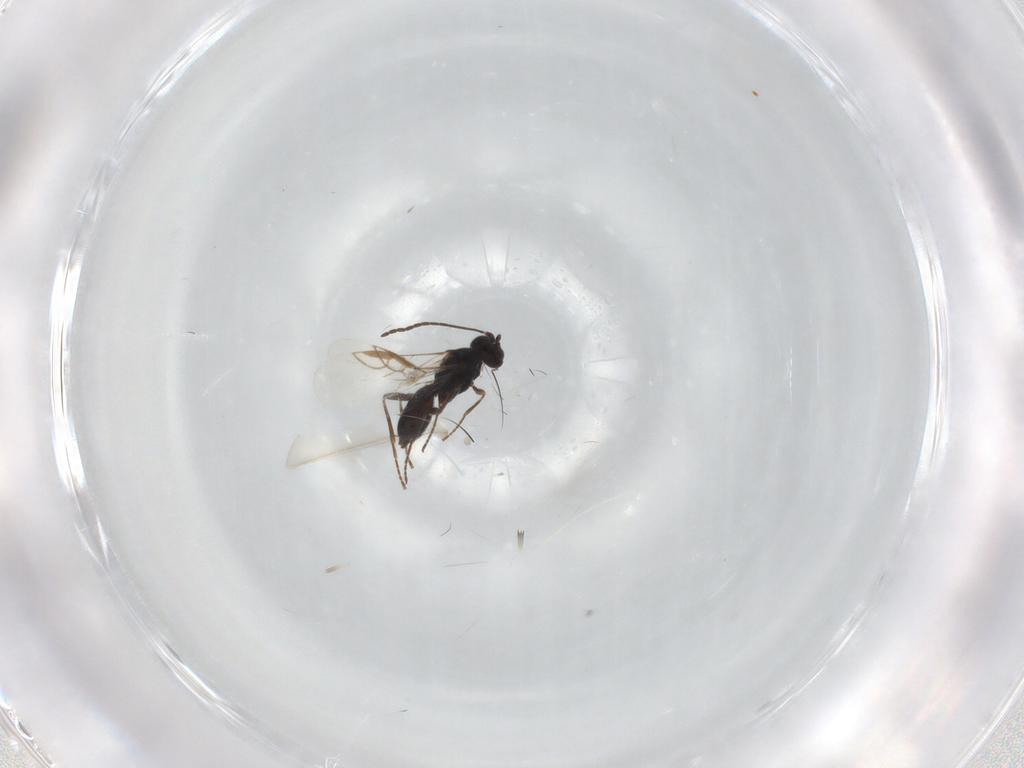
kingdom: Animalia
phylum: Arthropoda
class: Insecta
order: Hymenoptera
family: Braconidae
